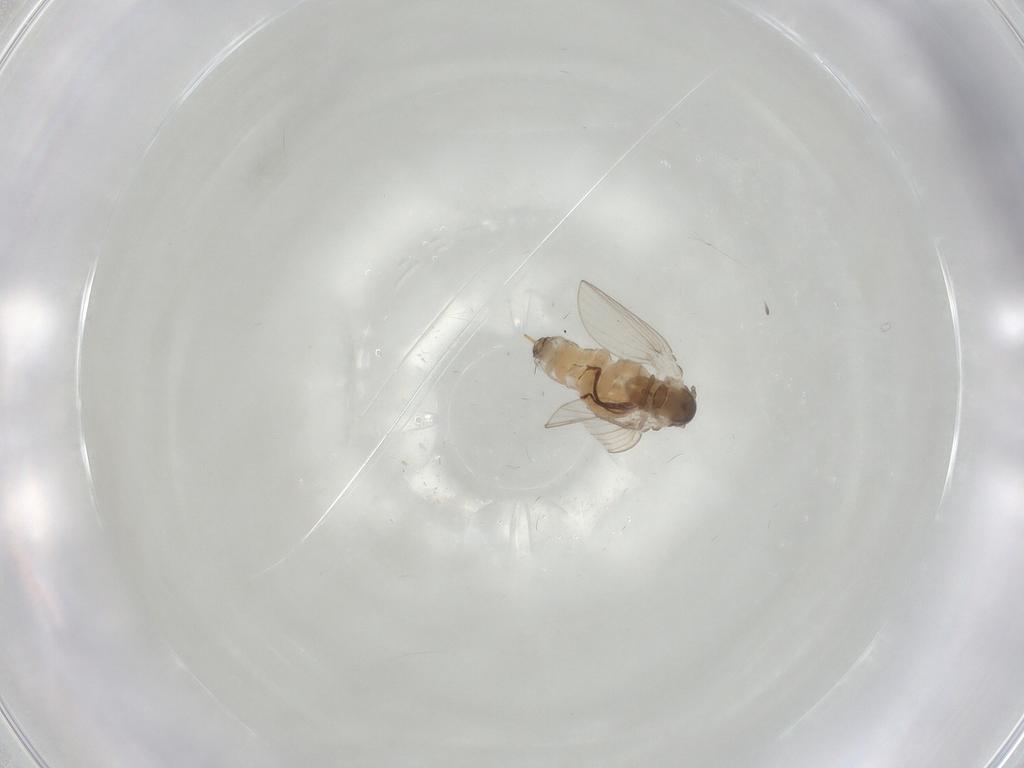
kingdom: Animalia
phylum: Arthropoda
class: Insecta
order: Diptera
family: Psychodidae
